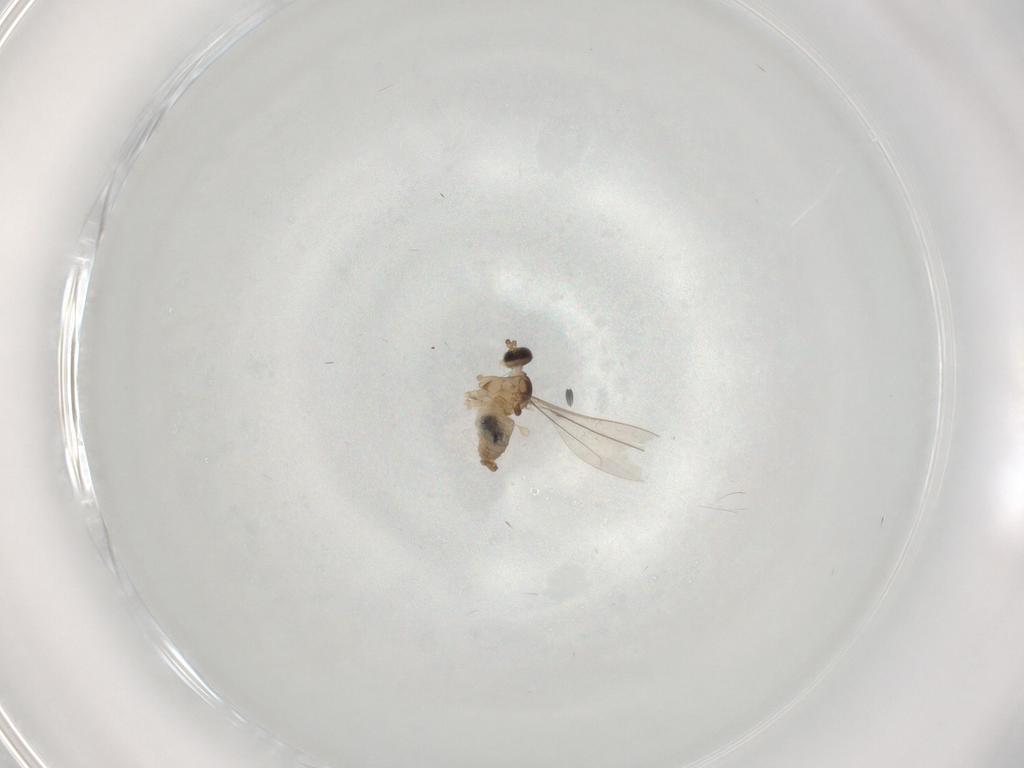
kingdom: Animalia
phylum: Arthropoda
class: Insecta
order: Diptera
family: Cecidomyiidae
